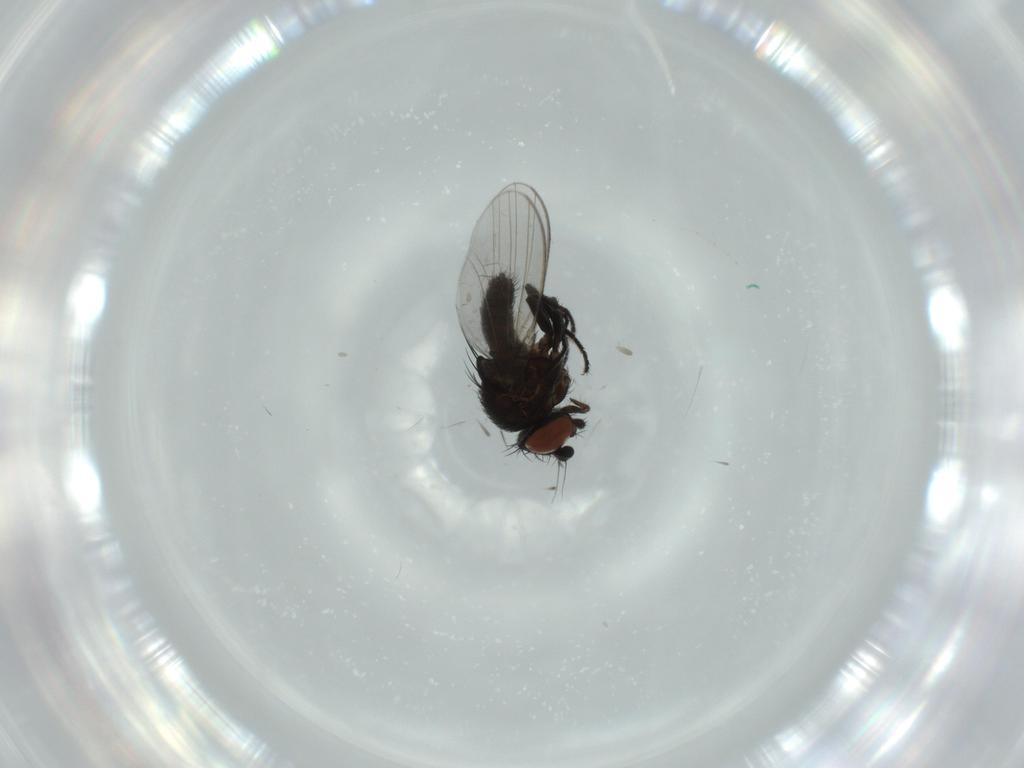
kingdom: Animalia
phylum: Arthropoda
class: Insecta
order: Diptera
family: Milichiidae
